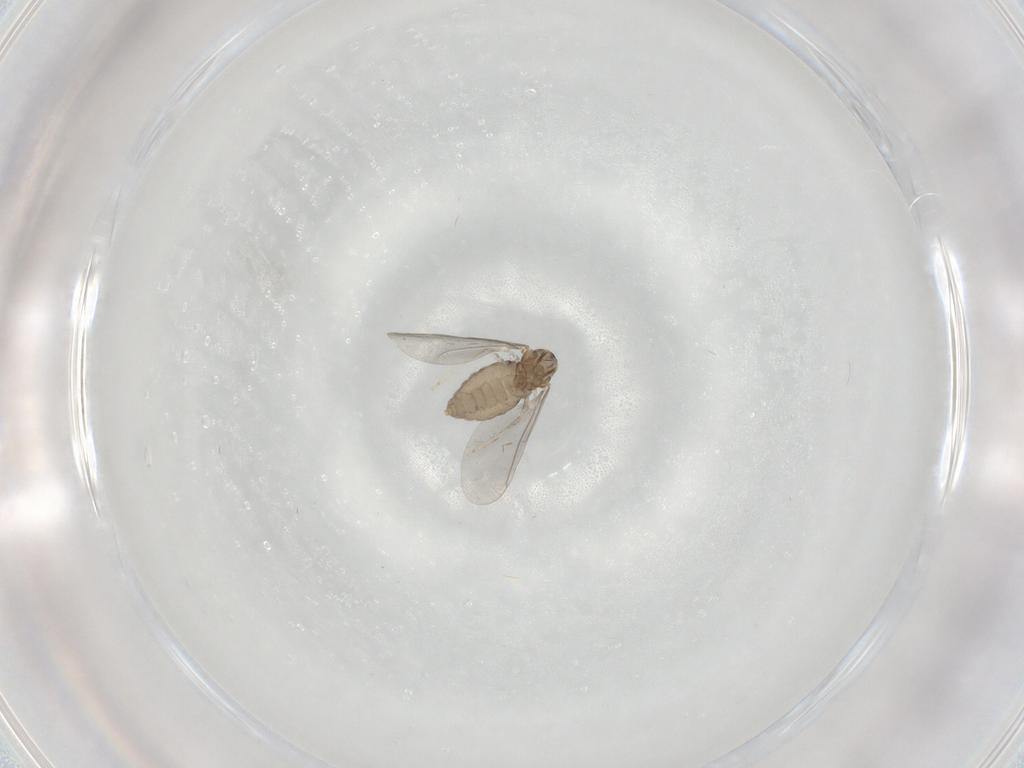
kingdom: Animalia
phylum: Arthropoda
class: Insecta
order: Diptera
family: Cecidomyiidae
